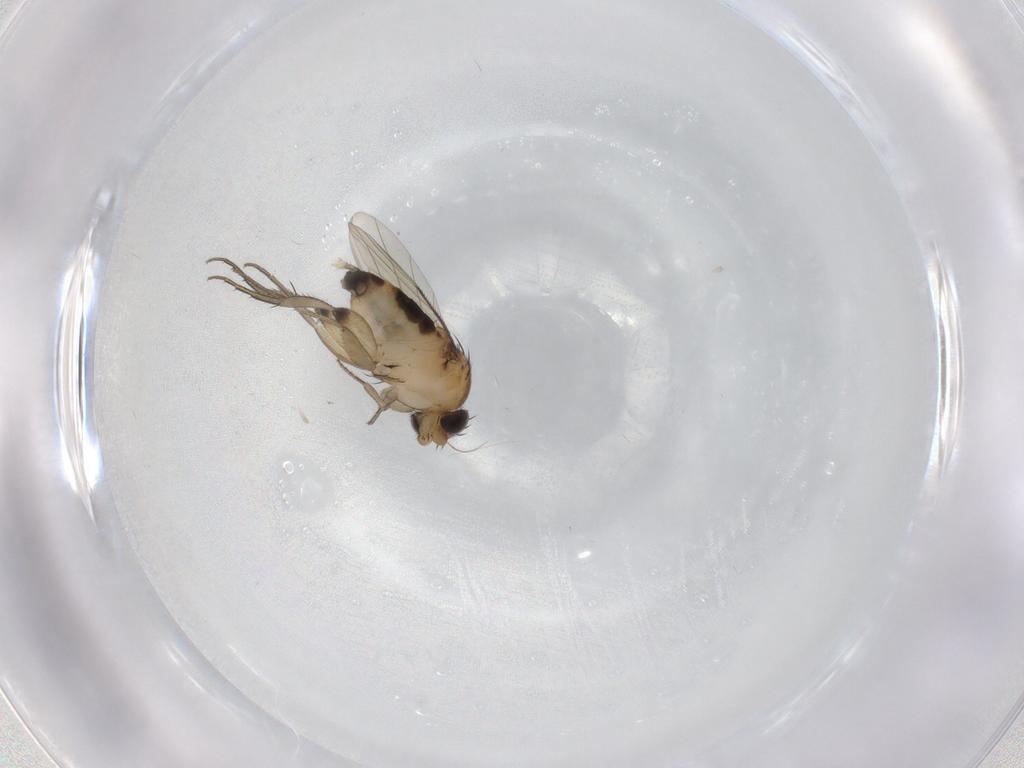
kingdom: Animalia
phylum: Arthropoda
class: Insecta
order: Diptera
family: Phoridae
